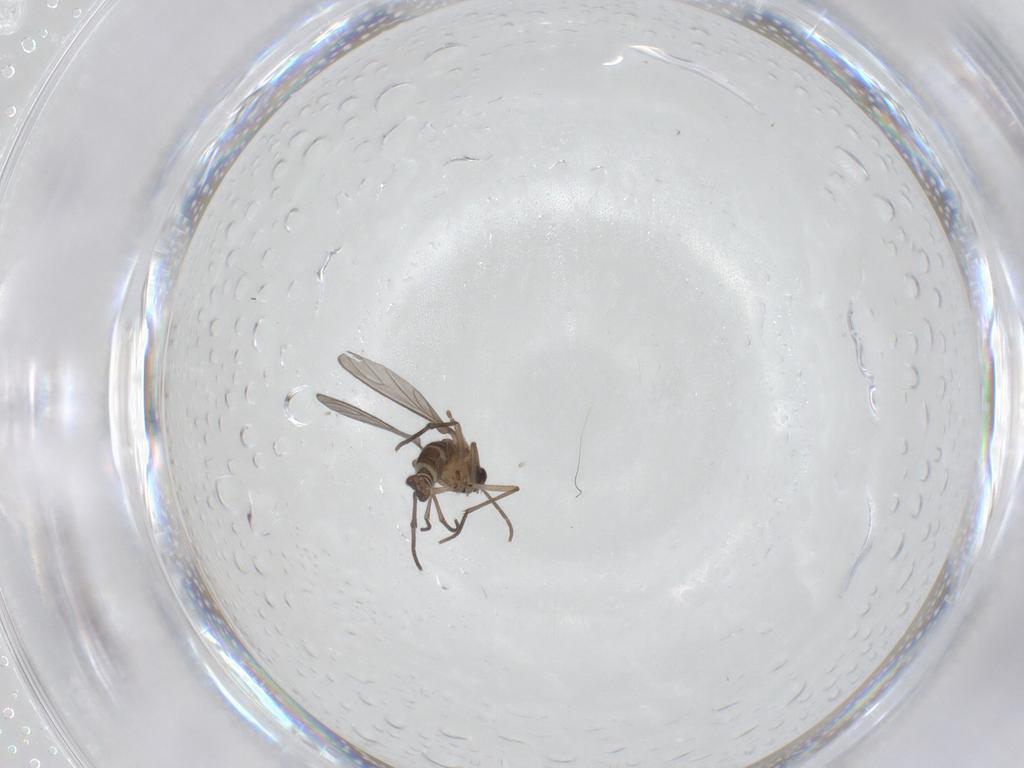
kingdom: Animalia
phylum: Arthropoda
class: Insecta
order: Diptera
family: Sciaridae
